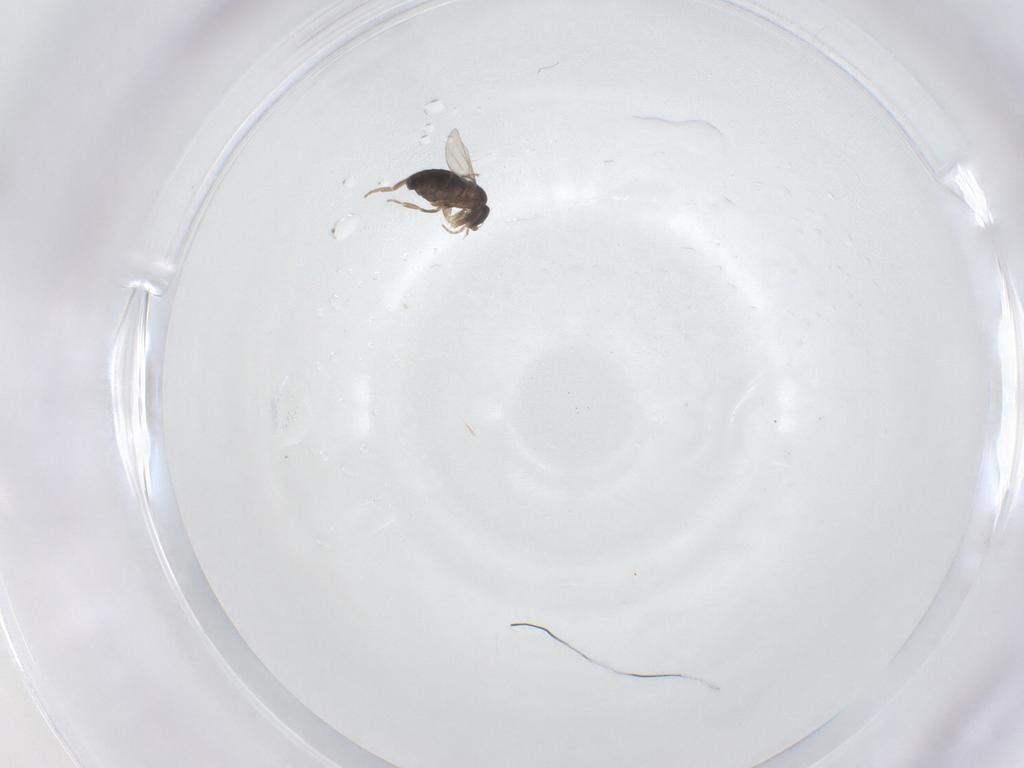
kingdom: Animalia
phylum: Arthropoda
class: Insecta
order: Diptera
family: Phoridae
